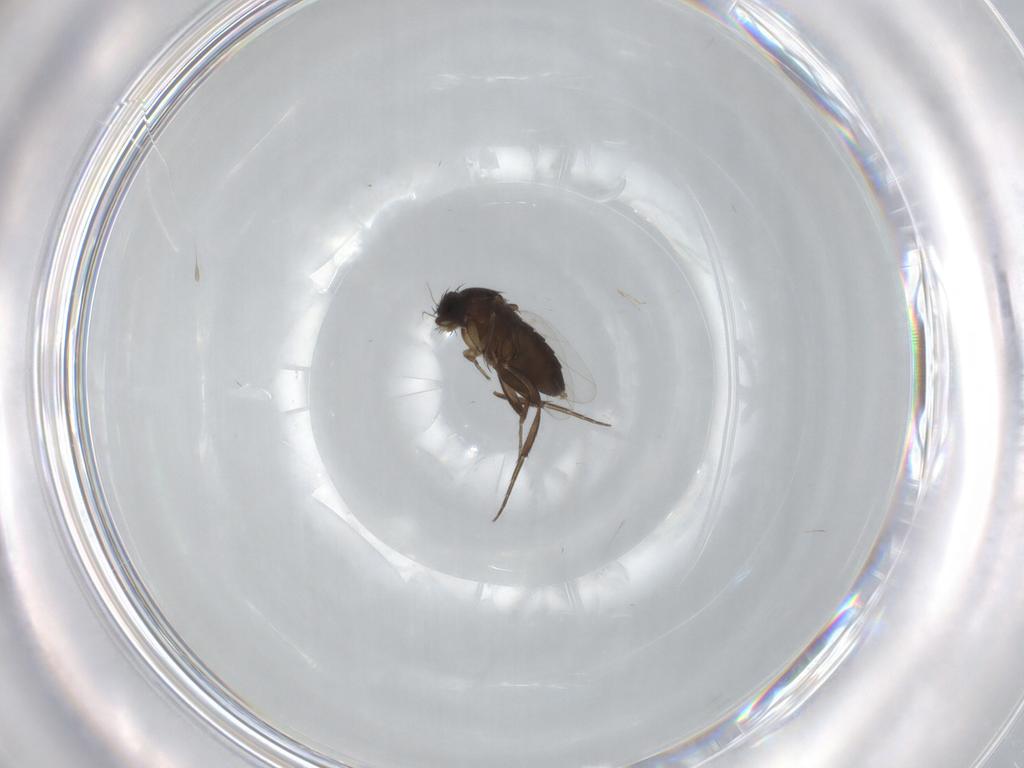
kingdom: Animalia
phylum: Arthropoda
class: Insecta
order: Diptera
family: Phoridae
